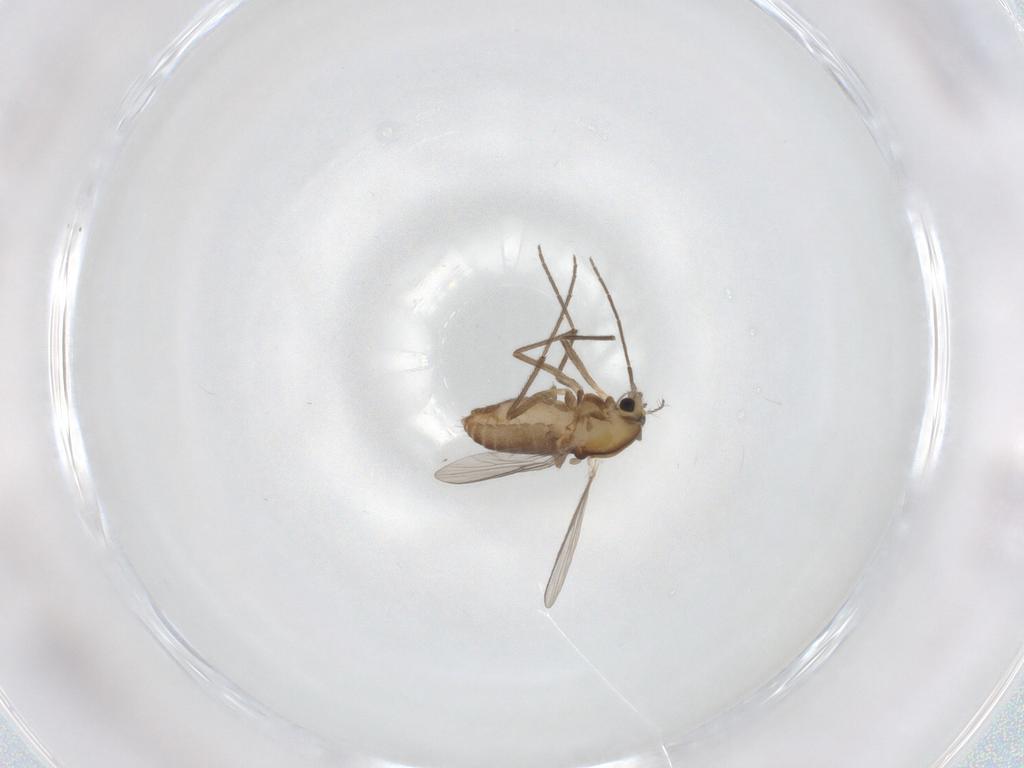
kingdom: Animalia
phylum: Arthropoda
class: Insecta
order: Diptera
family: Chironomidae
